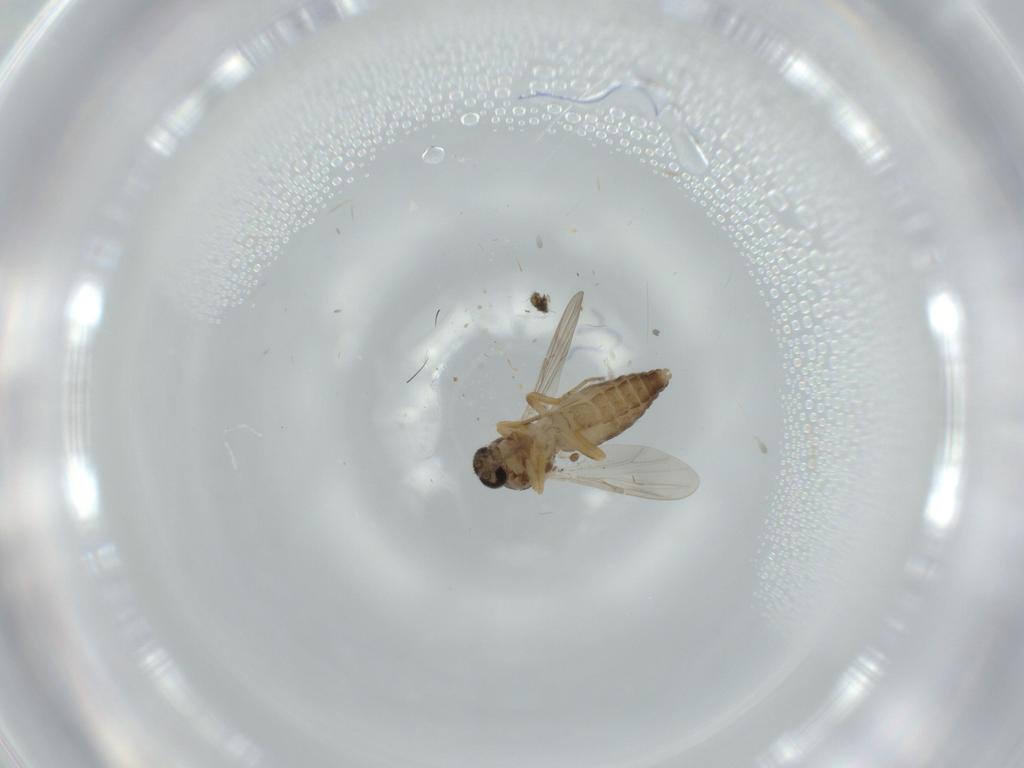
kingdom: Animalia
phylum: Arthropoda
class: Insecta
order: Diptera
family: Ceratopogonidae
